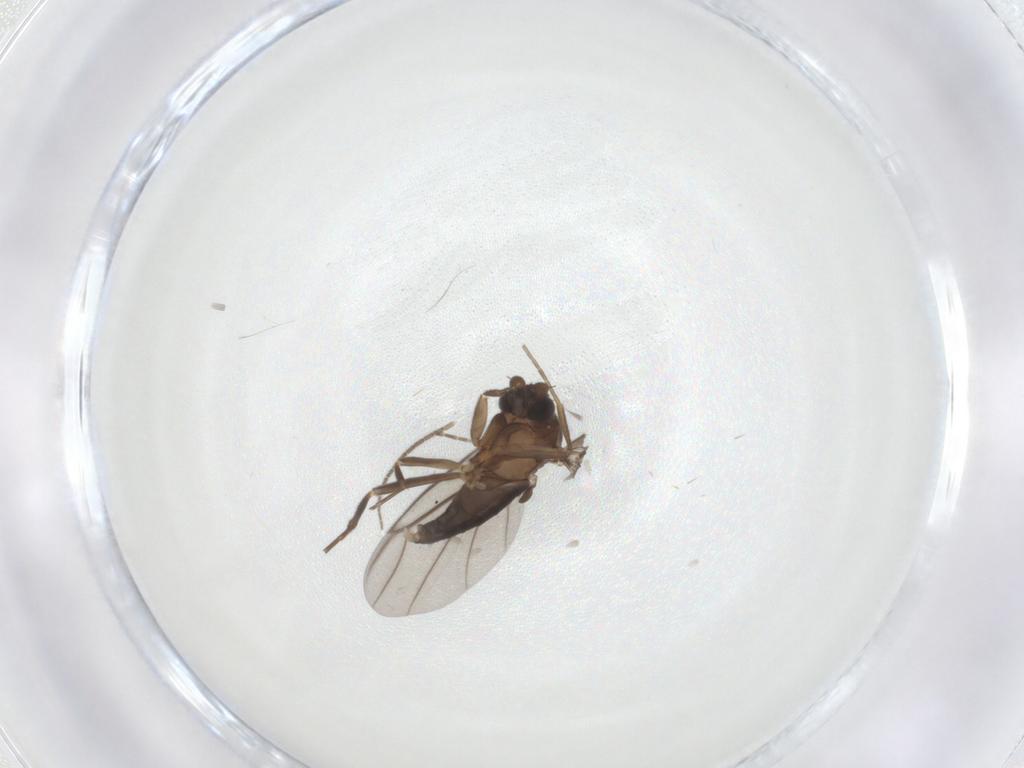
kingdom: Animalia
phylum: Arthropoda
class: Insecta
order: Diptera
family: Sciaridae
